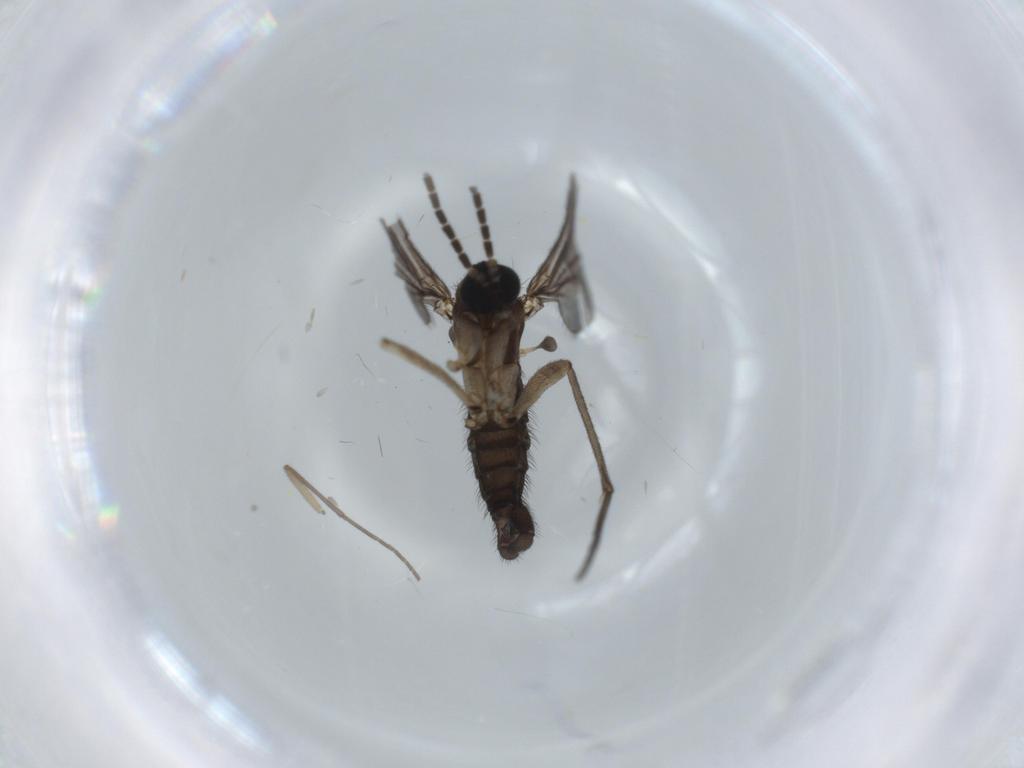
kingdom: Animalia
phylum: Arthropoda
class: Insecta
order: Diptera
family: Sciaridae
